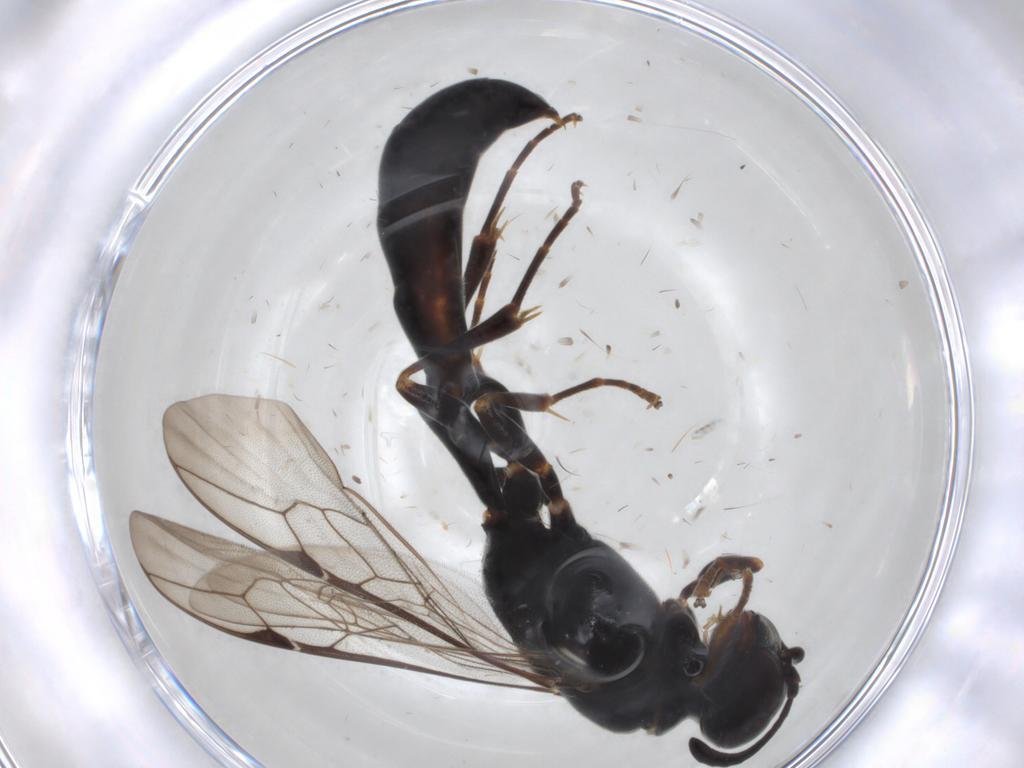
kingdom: Animalia
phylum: Arthropoda
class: Insecta
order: Hymenoptera
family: Crabronidae
